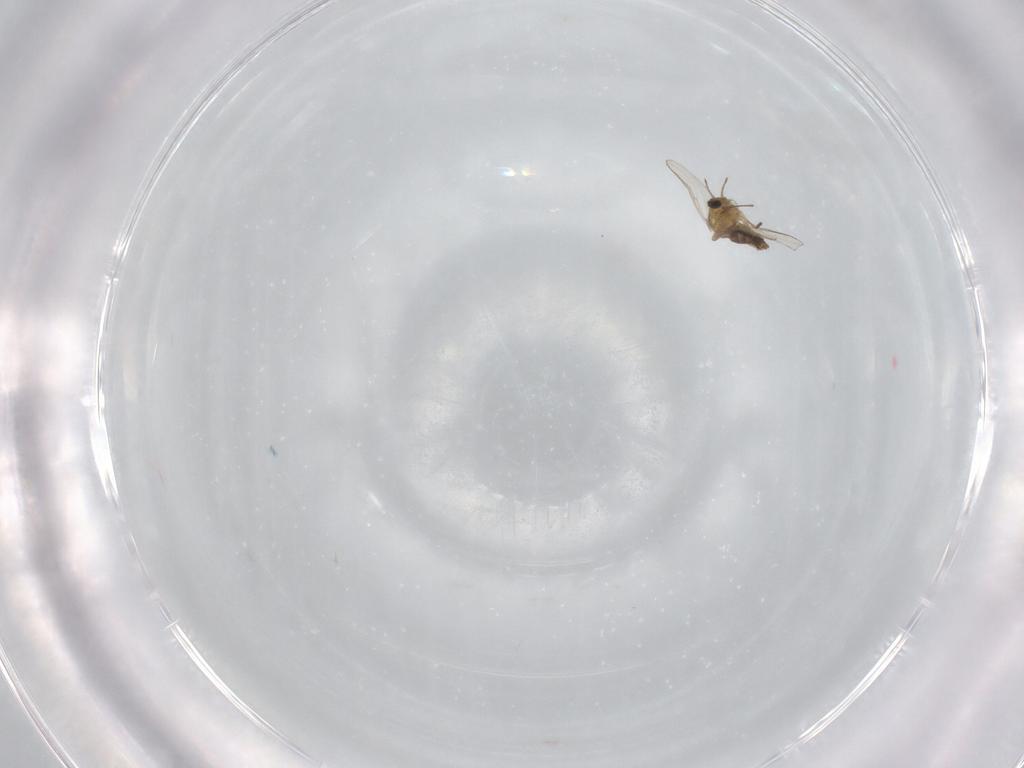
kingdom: Animalia
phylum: Arthropoda
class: Insecta
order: Diptera
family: Chironomidae
